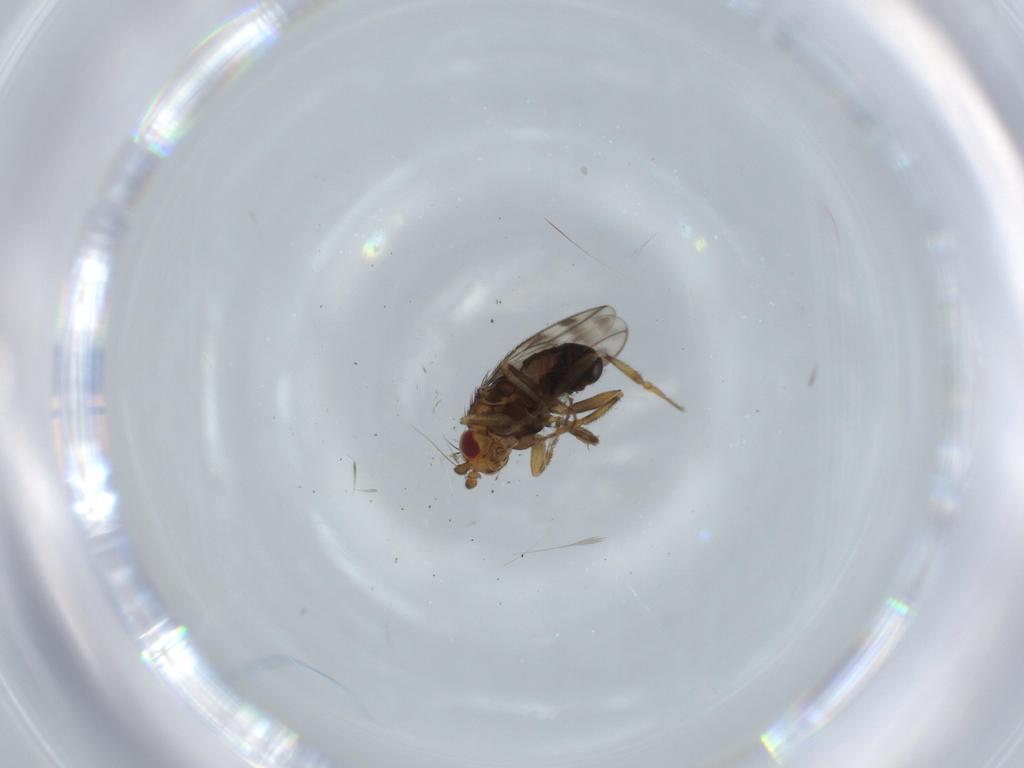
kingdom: Animalia
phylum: Arthropoda
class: Insecta
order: Diptera
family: Sphaeroceridae
